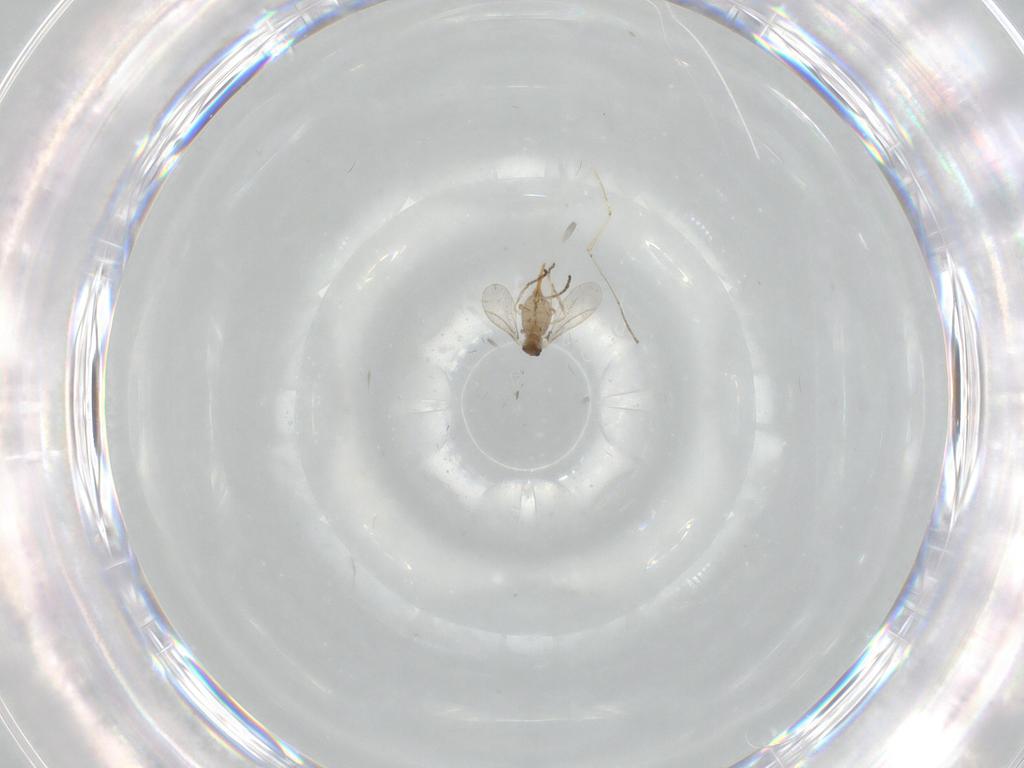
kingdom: Animalia
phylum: Arthropoda
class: Insecta
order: Diptera
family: Cecidomyiidae
